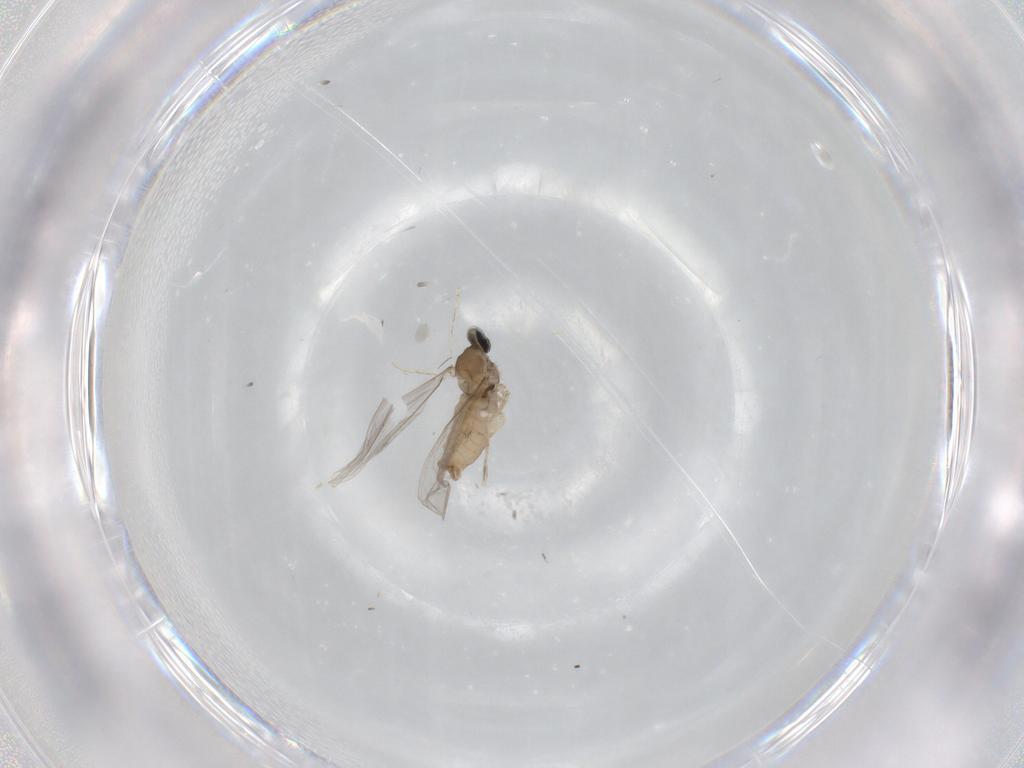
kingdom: Animalia
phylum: Arthropoda
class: Insecta
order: Diptera
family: Cecidomyiidae
